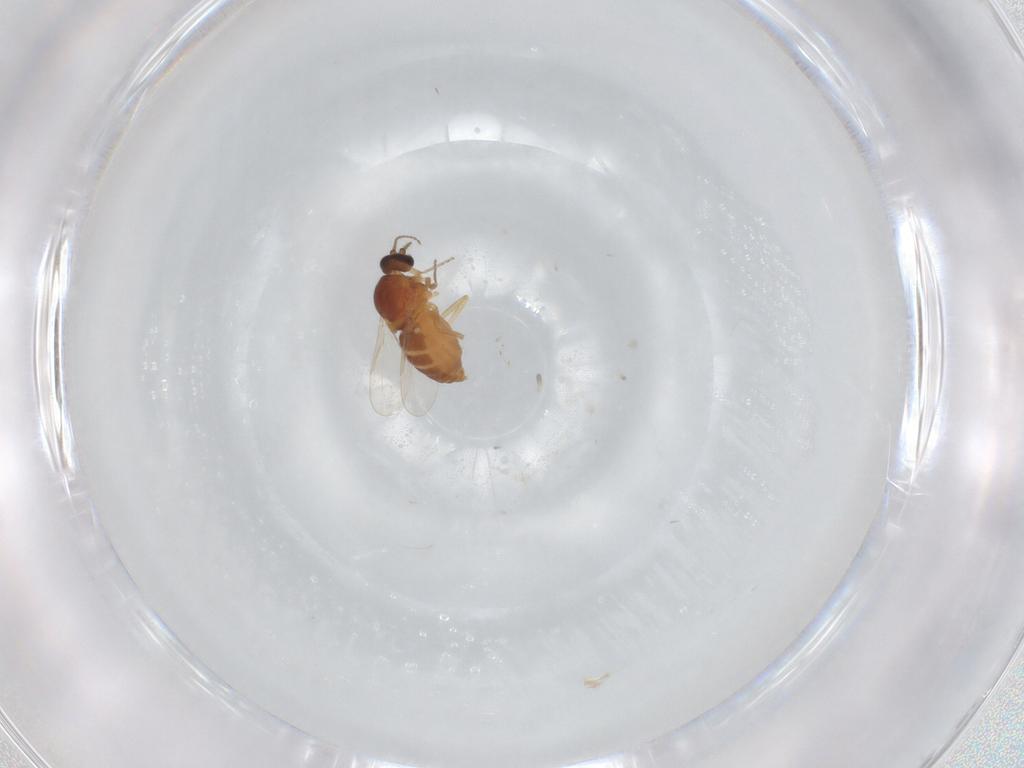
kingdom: Animalia
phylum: Arthropoda
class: Insecta
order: Diptera
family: Ceratopogonidae
